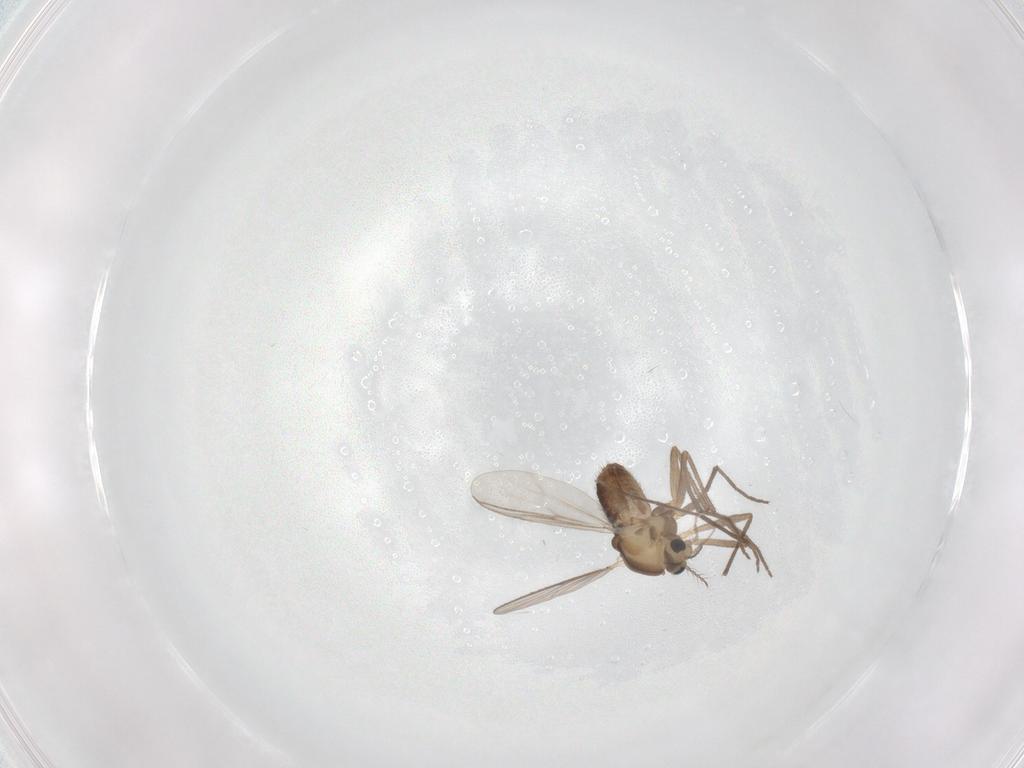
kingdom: Animalia
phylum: Arthropoda
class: Insecta
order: Diptera
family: Chironomidae
